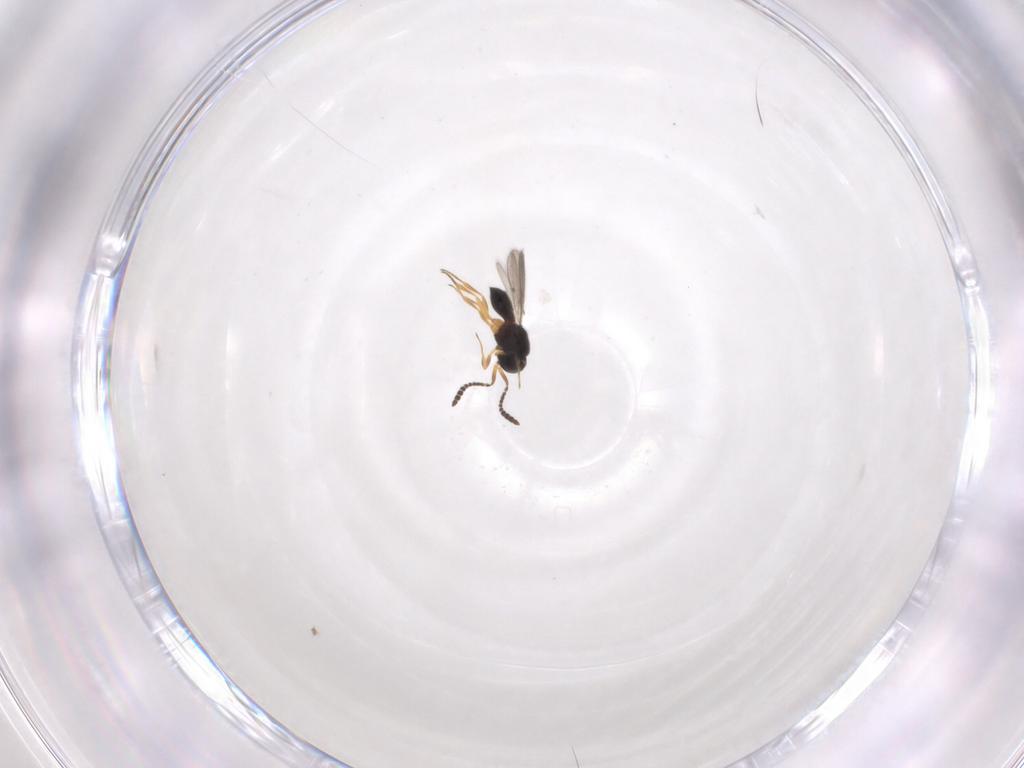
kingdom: Animalia
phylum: Arthropoda
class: Insecta
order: Hymenoptera
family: Scelionidae
